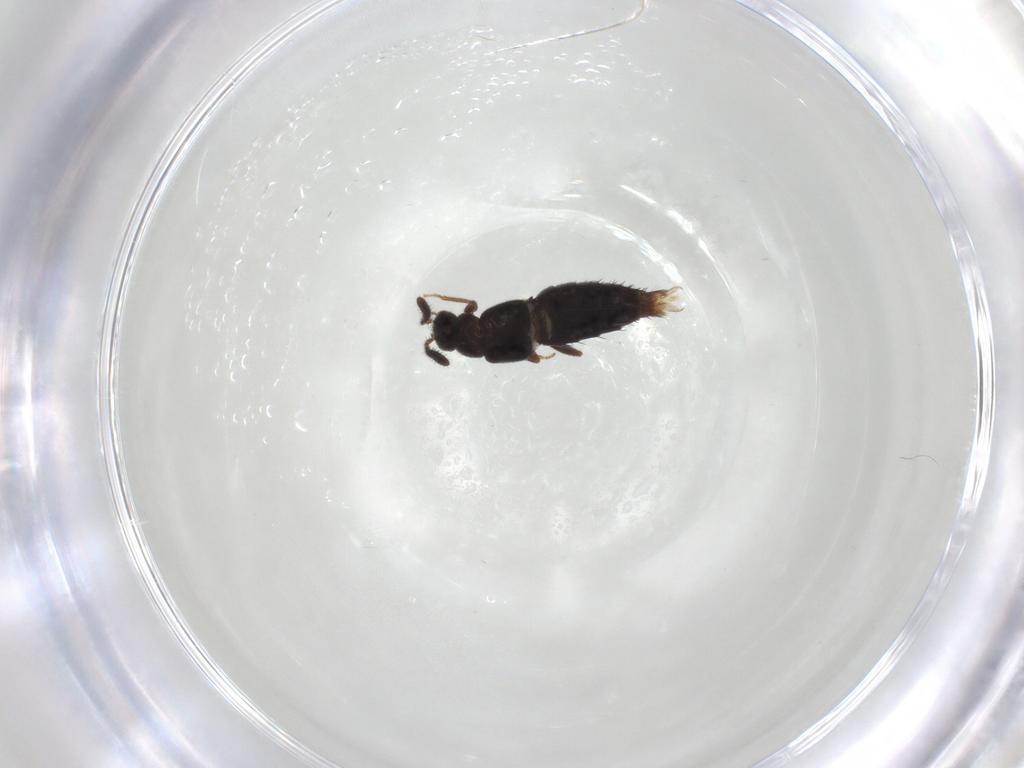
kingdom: Animalia
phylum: Arthropoda
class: Insecta
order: Coleoptera
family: Staphylinidae
